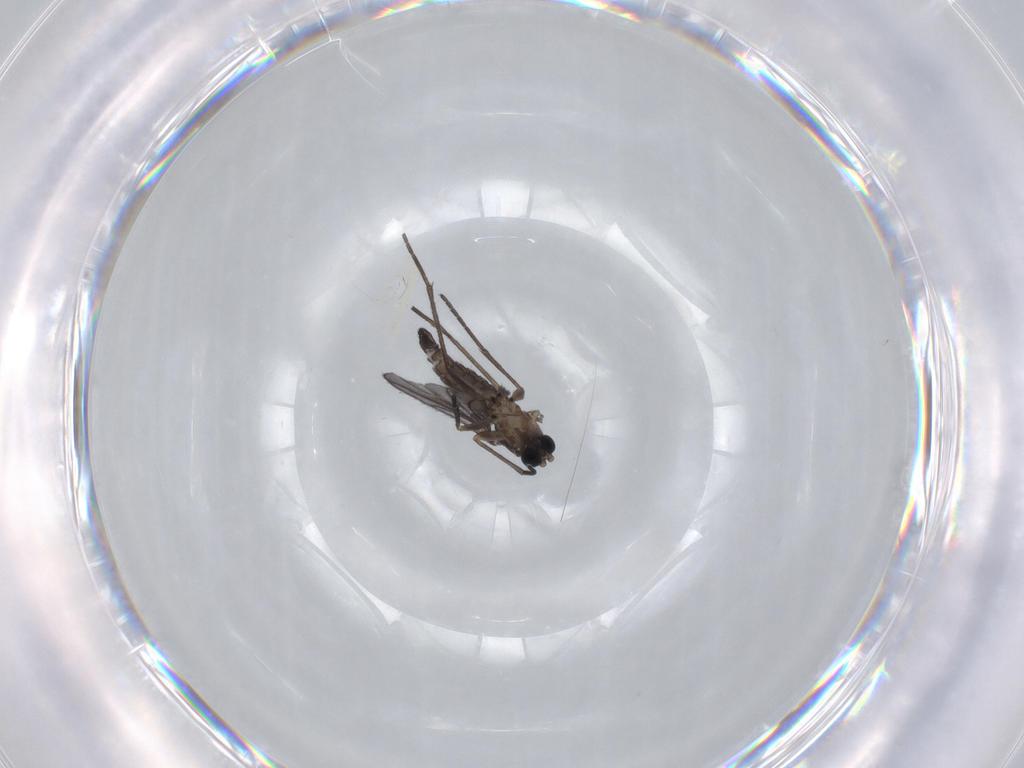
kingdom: Animalia
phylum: Arthropoda
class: Insecta
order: Diptera
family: Sciaridae
